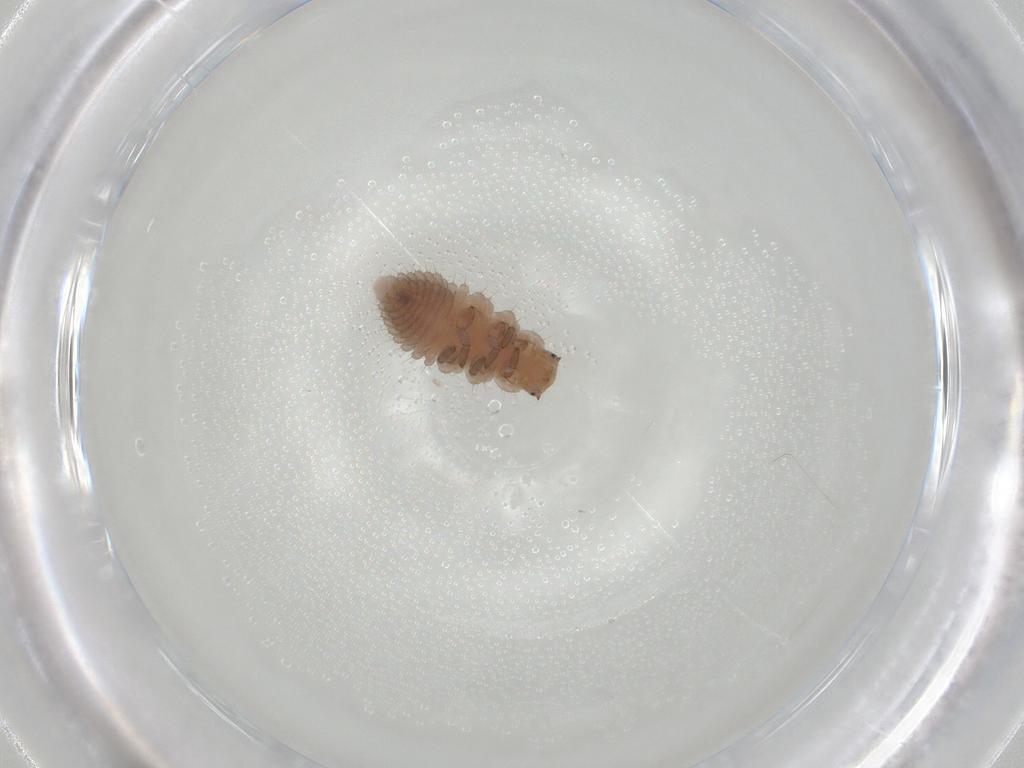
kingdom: Animalia
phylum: Arthropoda
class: Insecta
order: Coleoptera
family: Coccinellidae
